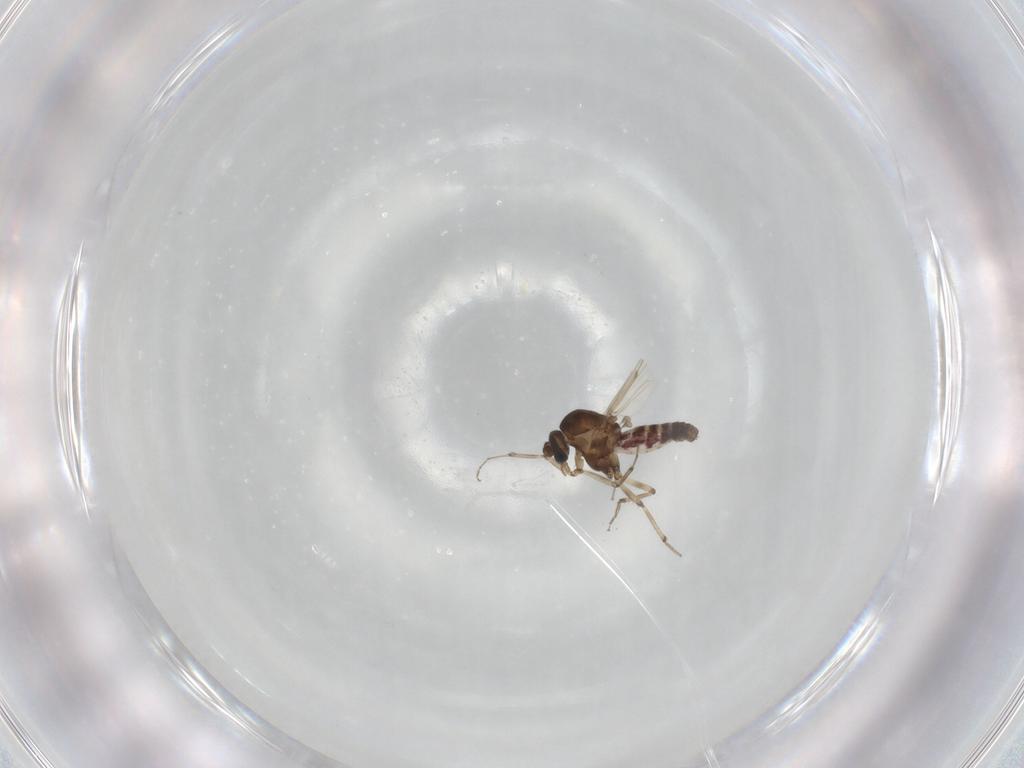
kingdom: Animalia
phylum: Arthropoda
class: Insecta
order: Diptera
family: Ceratopogonidae
